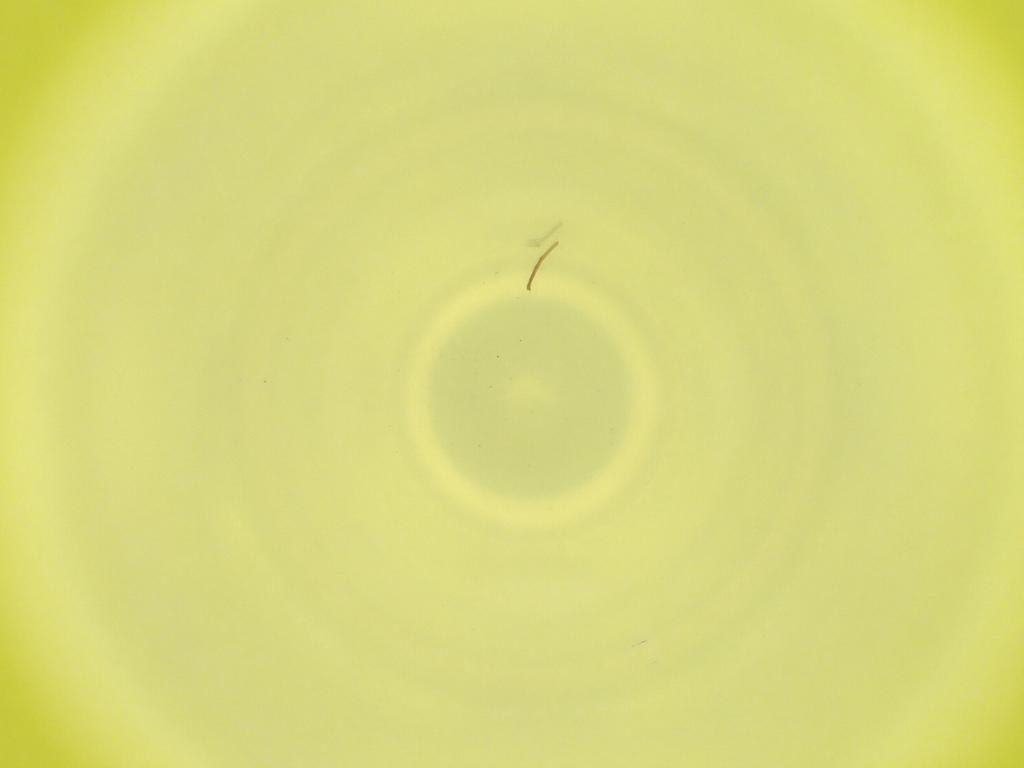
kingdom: Animalia
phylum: Arthropoda
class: Insecta
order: Diptera
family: Cecidomyiidae
